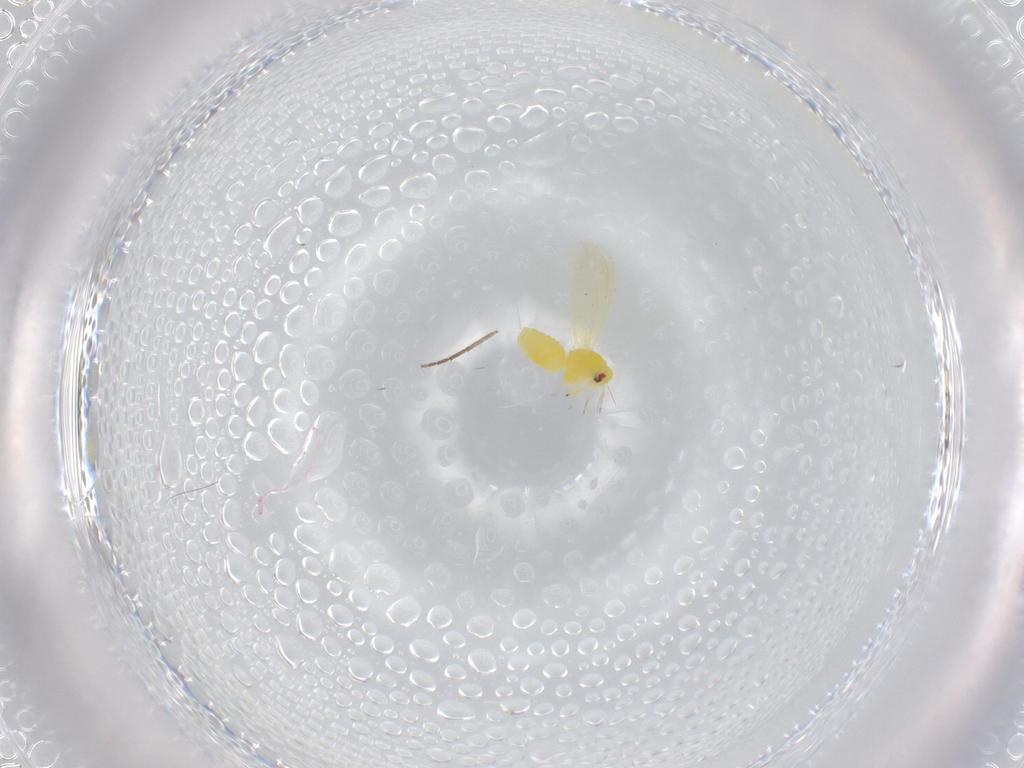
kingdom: Animalia
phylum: Arthropoda
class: Insecta
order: Hemiptera
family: Aleyrodidae
